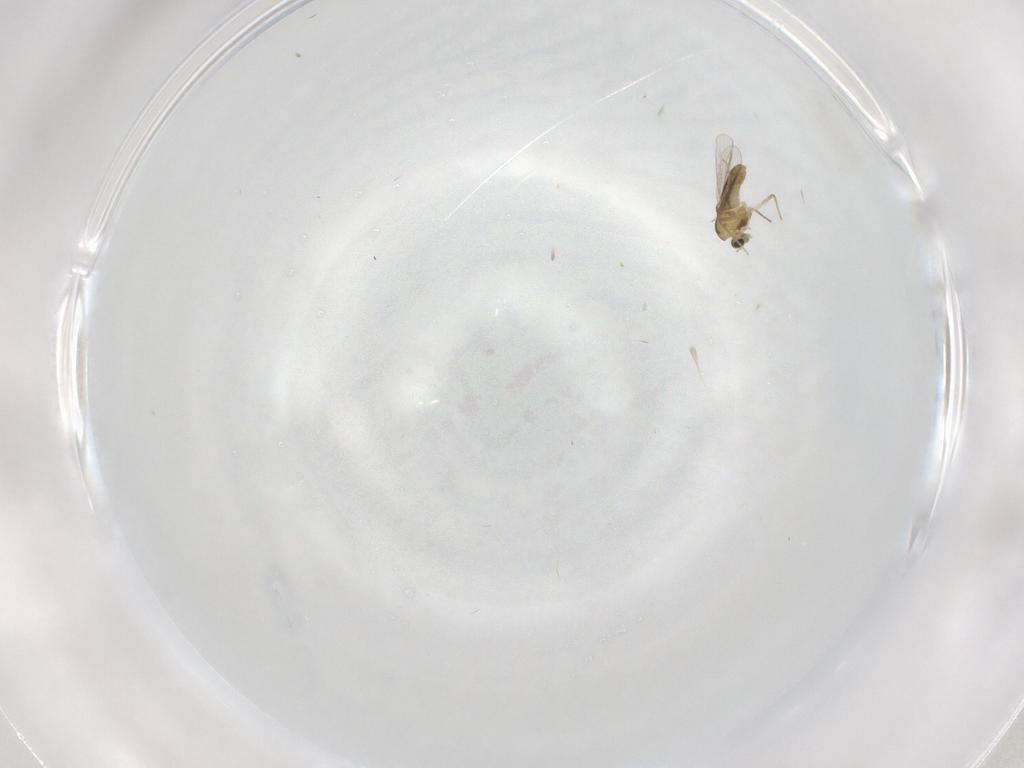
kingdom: Animalia
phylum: Arthropoda
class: Insecta
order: Diptera
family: Chironomidae
